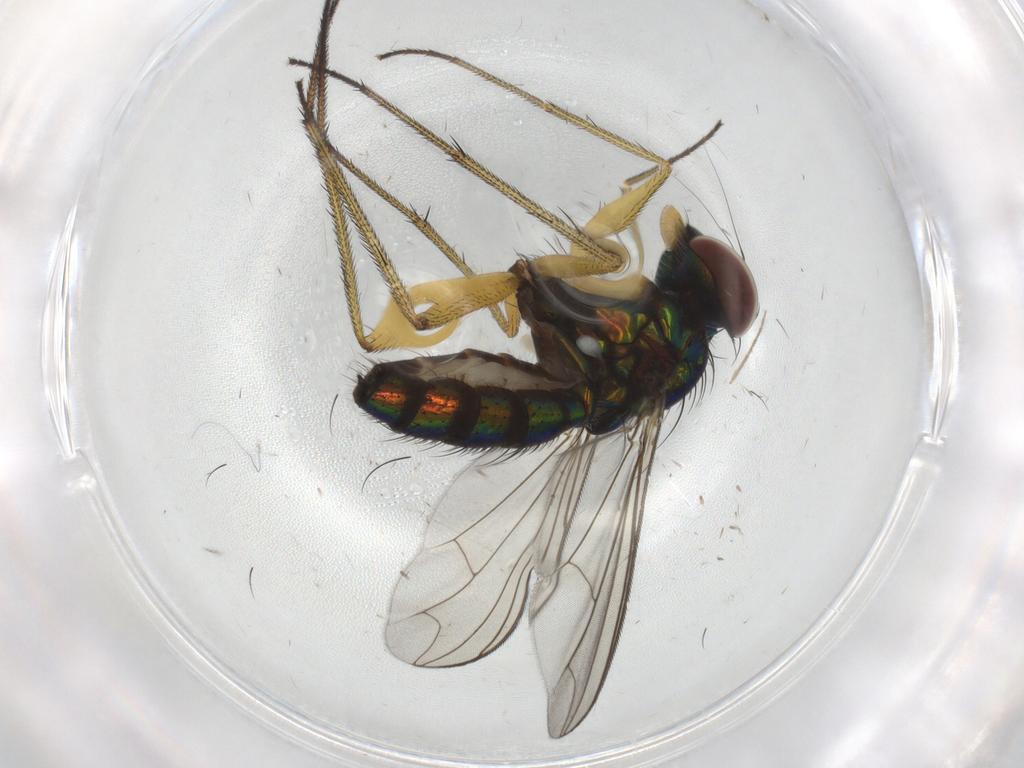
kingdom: Animalia
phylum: Arthropoda
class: Insecta
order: Diptera
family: Dolichopodidae
